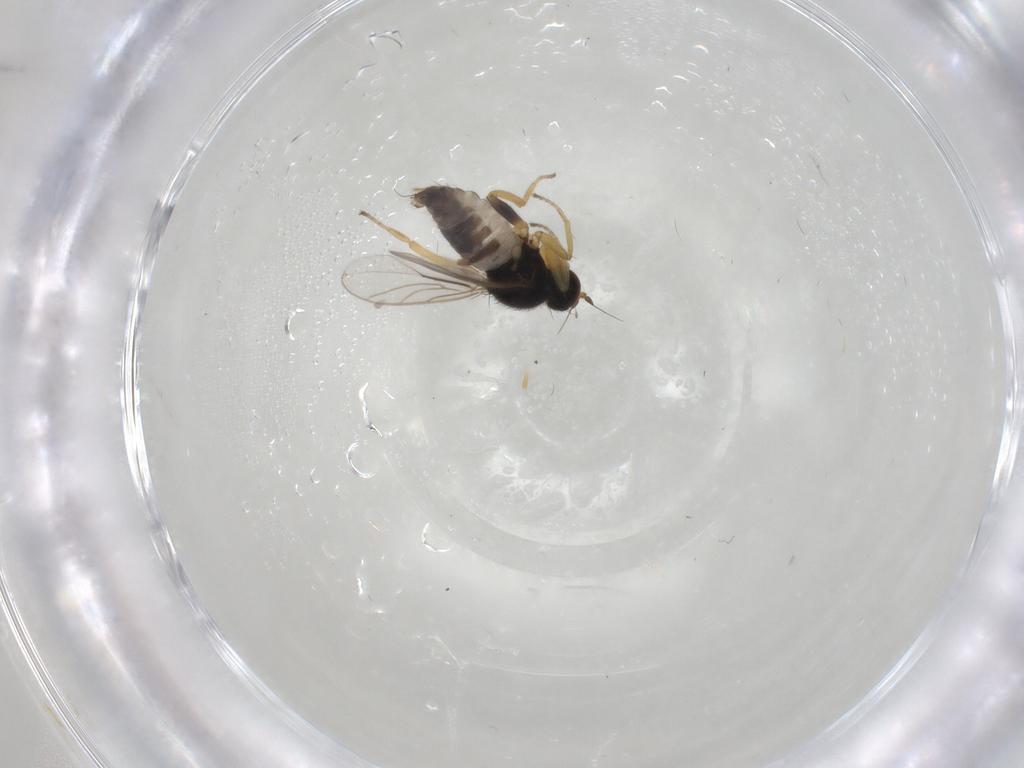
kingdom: Animalia
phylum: Arthropoda
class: Insecta
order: Diptera
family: Hybotidae
